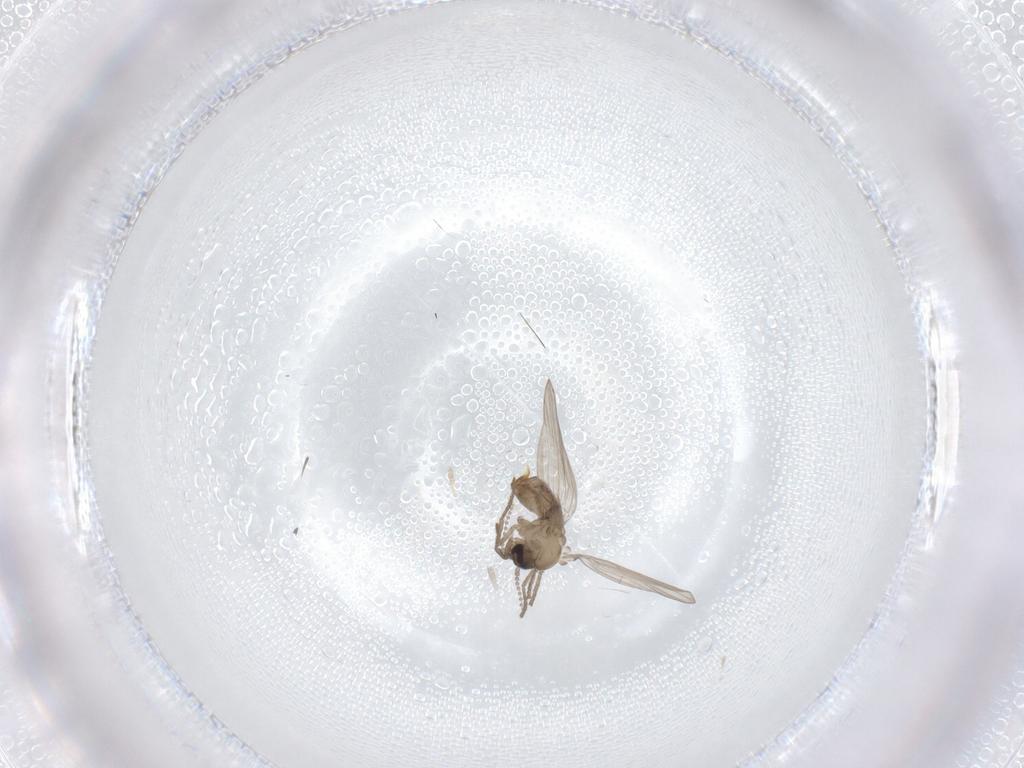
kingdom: Animalia
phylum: Arthropoda
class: Insecta
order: Diptera
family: Psychodidae
